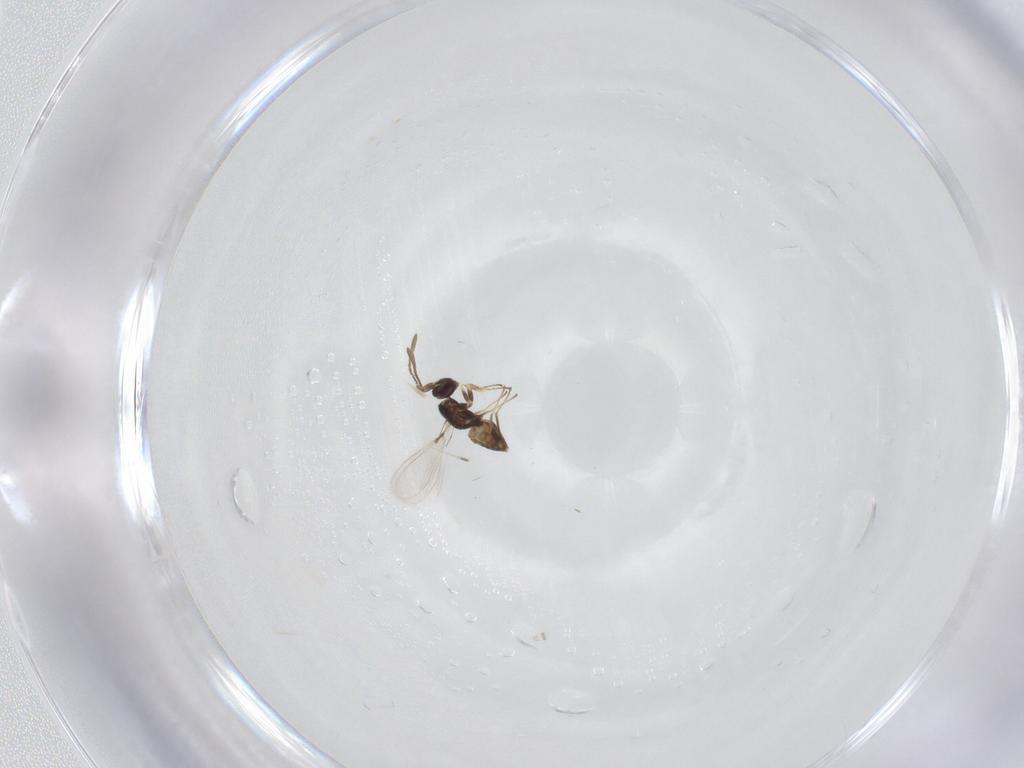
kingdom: Animalia
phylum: Arthropoda
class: Insecta
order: Hymenoptera
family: Mymaridae
